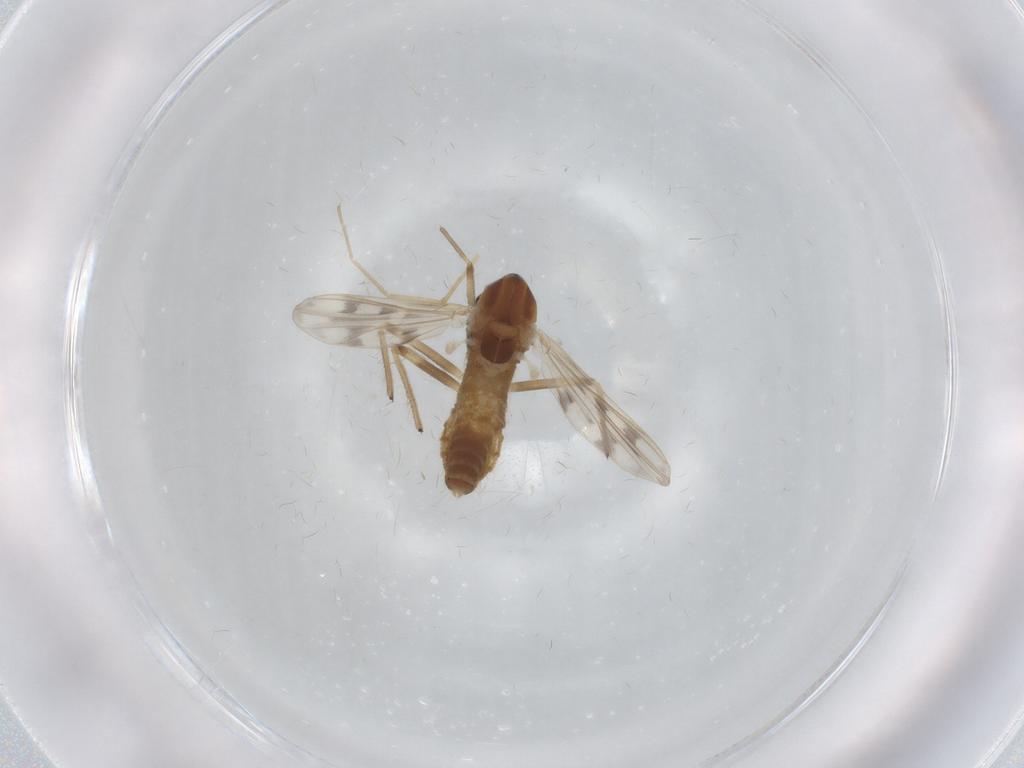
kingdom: Animalia
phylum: Arthropoda
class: Insecta
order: Diptera
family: Chironomidae
